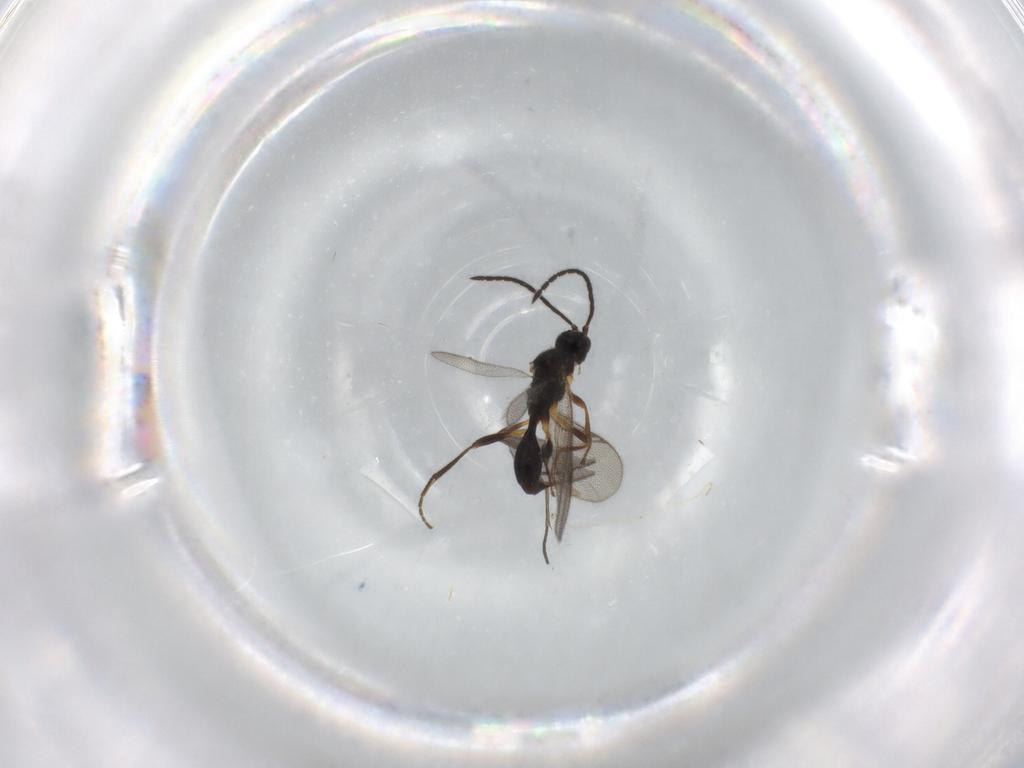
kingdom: Animalia
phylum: Arthropoda
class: Insecta
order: Hymenoptera
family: Proctotrupidae
